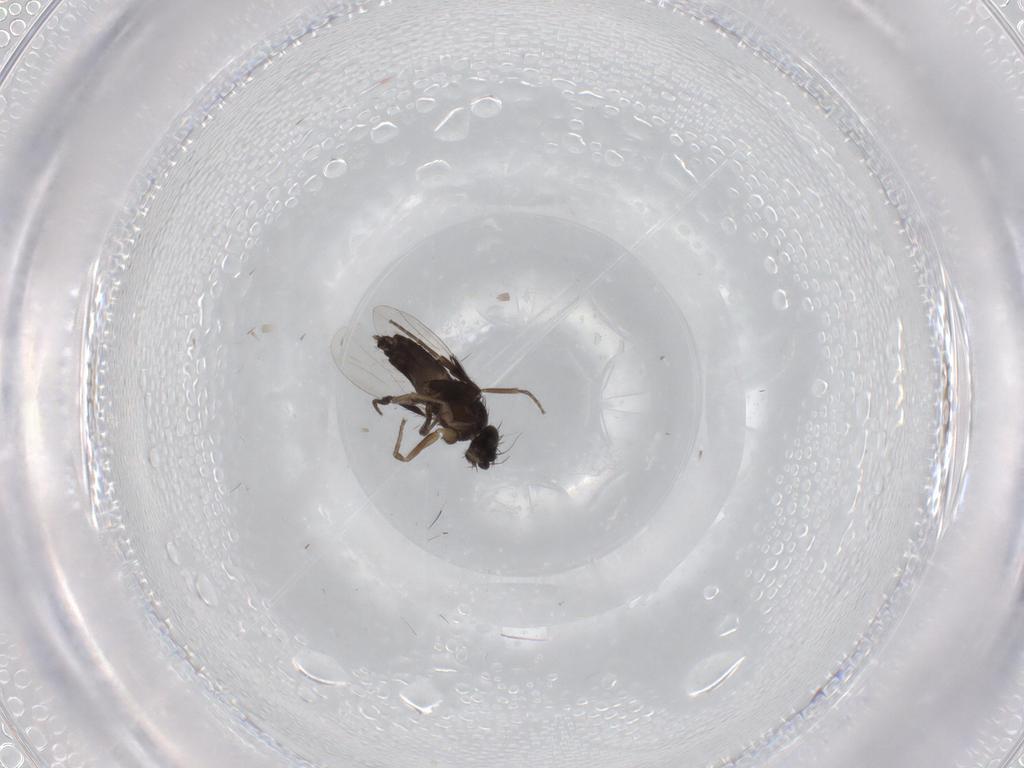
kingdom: Animalia
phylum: Arthropoda
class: Insecta
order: Diptera
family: Phoridae
